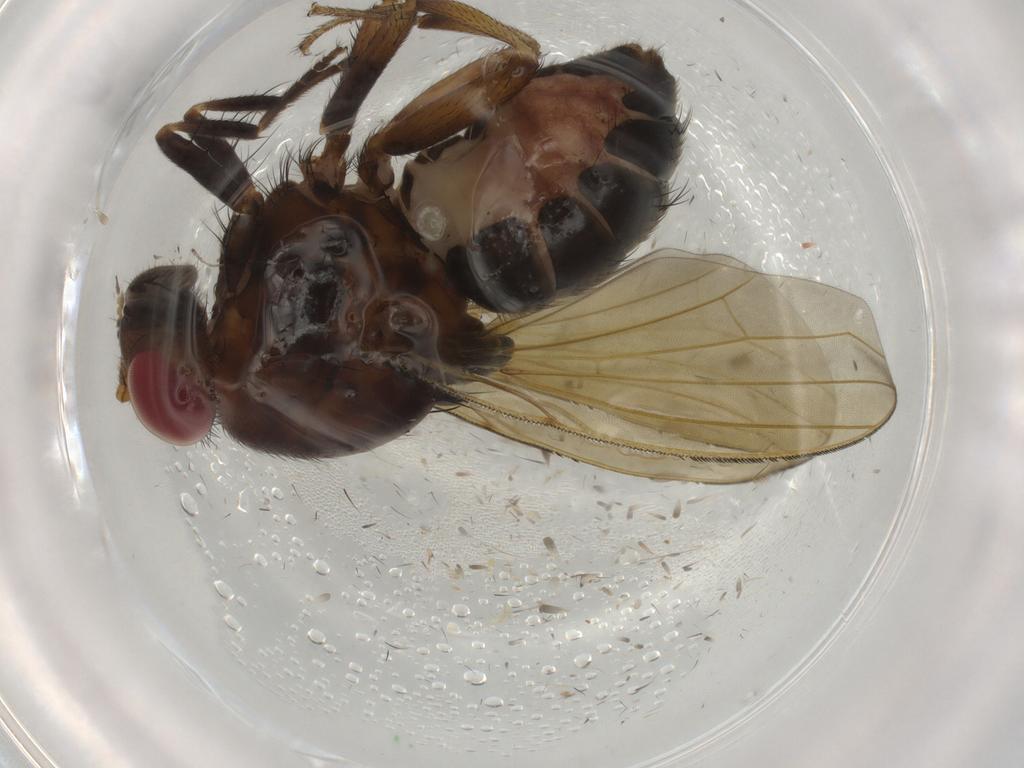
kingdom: Animalia
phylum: Arthropoda
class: Insecta
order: Diptera
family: Limoniidae
